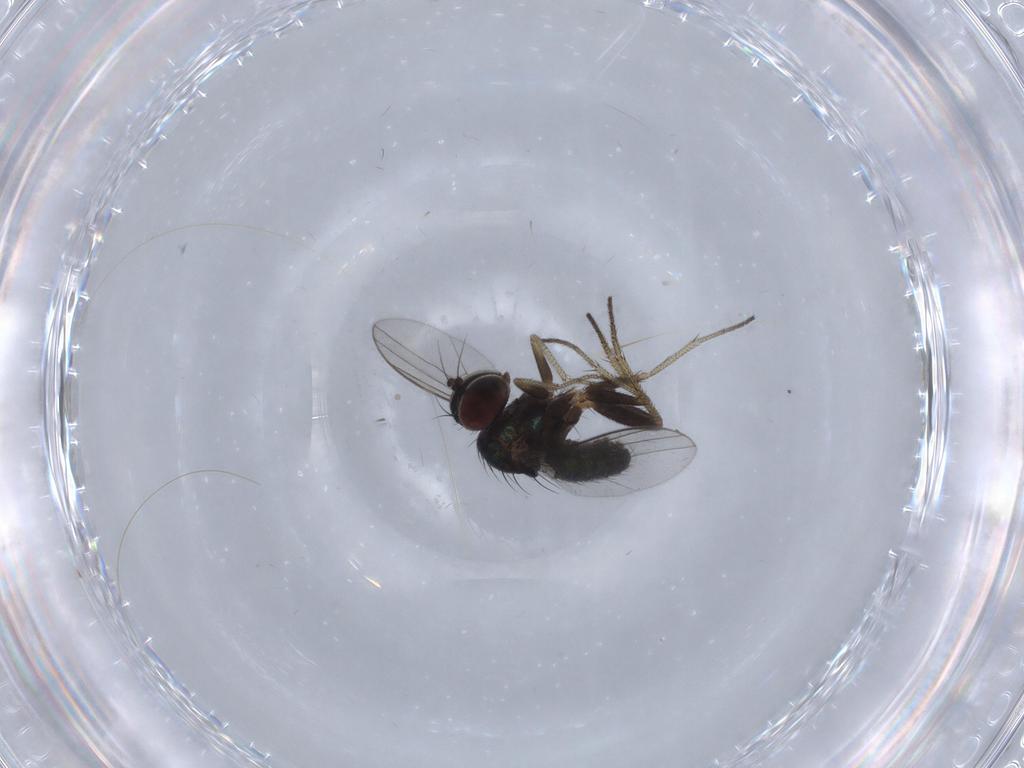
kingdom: Animalia
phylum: Arthropoda
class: Insecta
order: Diptera
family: Dolichopodidae
